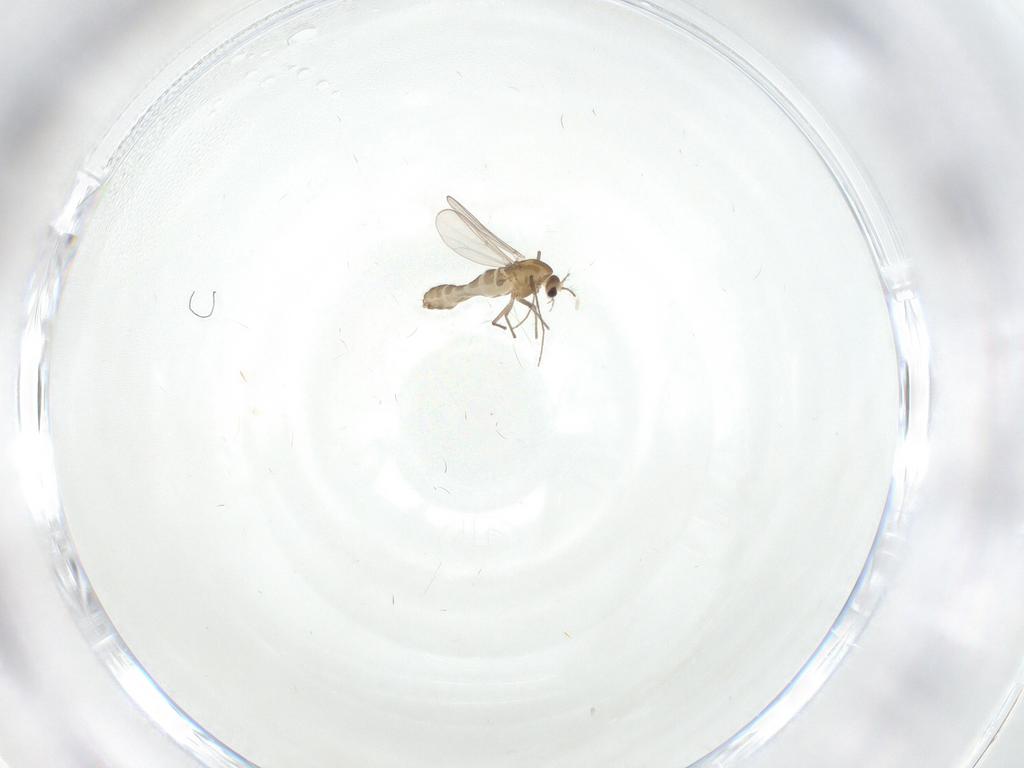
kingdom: Animalia
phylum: Arthropoda
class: Insecta
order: Diptera
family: Chironomidae
